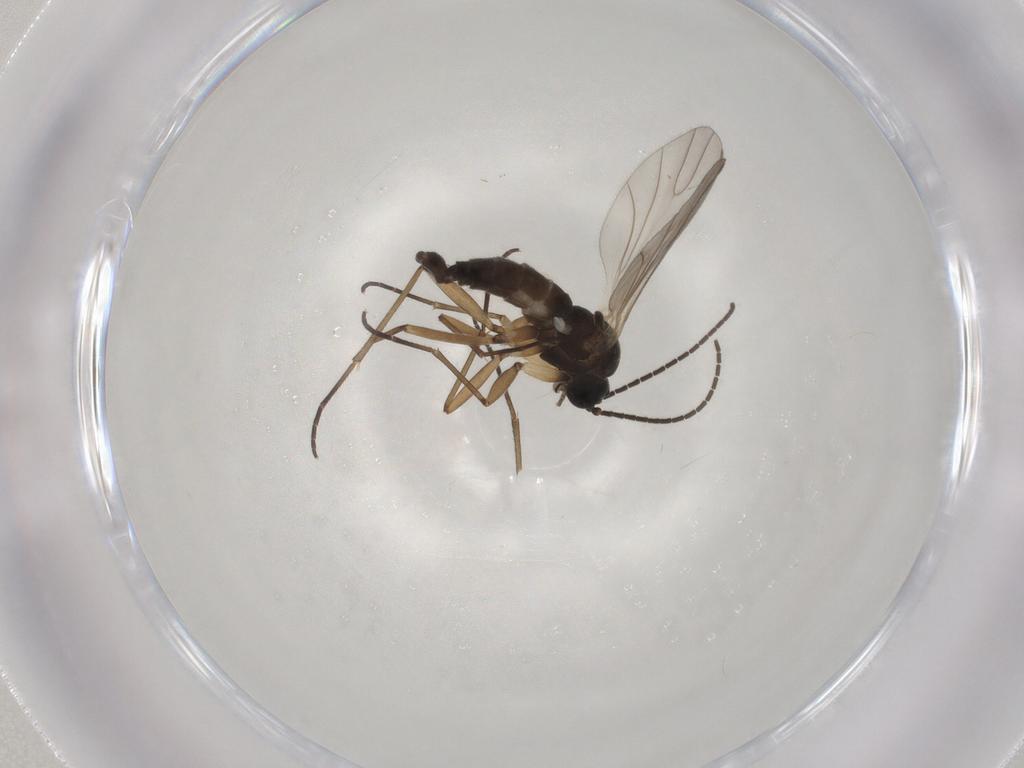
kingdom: Animalia
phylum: Arthropoda
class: Insecta
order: Diptera
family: Sciaridae
